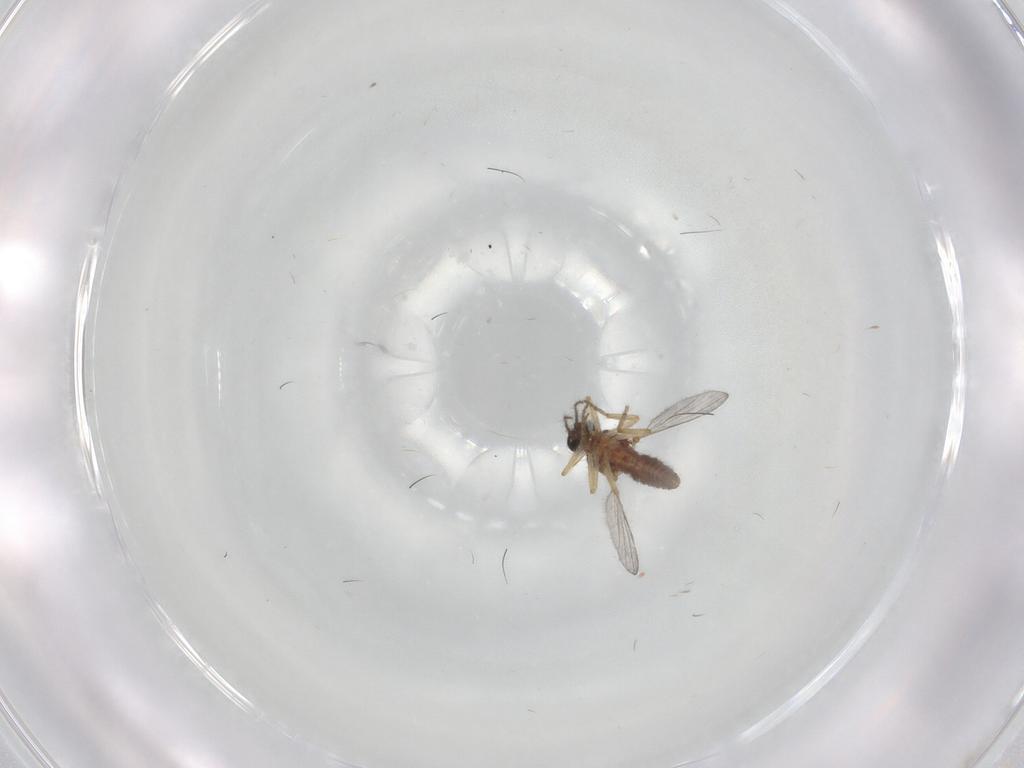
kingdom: Animalia
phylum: Arthropoda
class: Insecta
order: Diptera
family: Ceratopogonidae
